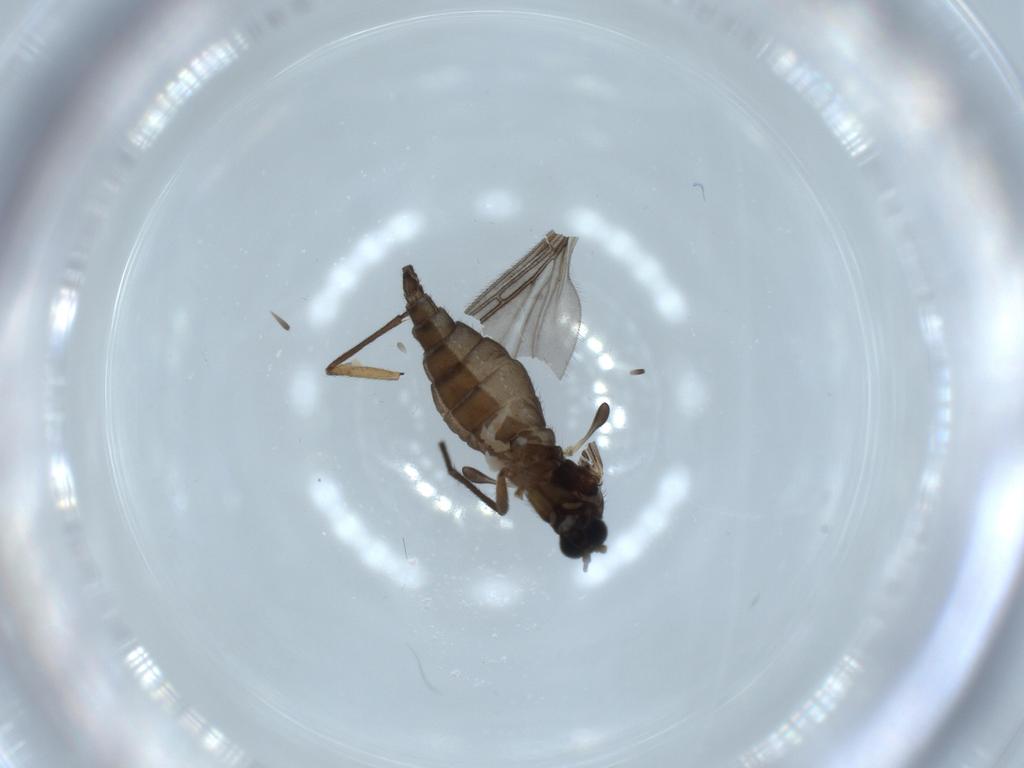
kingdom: Animalia
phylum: Arthropoda
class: Insecta
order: Diptera
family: Sciaridae
